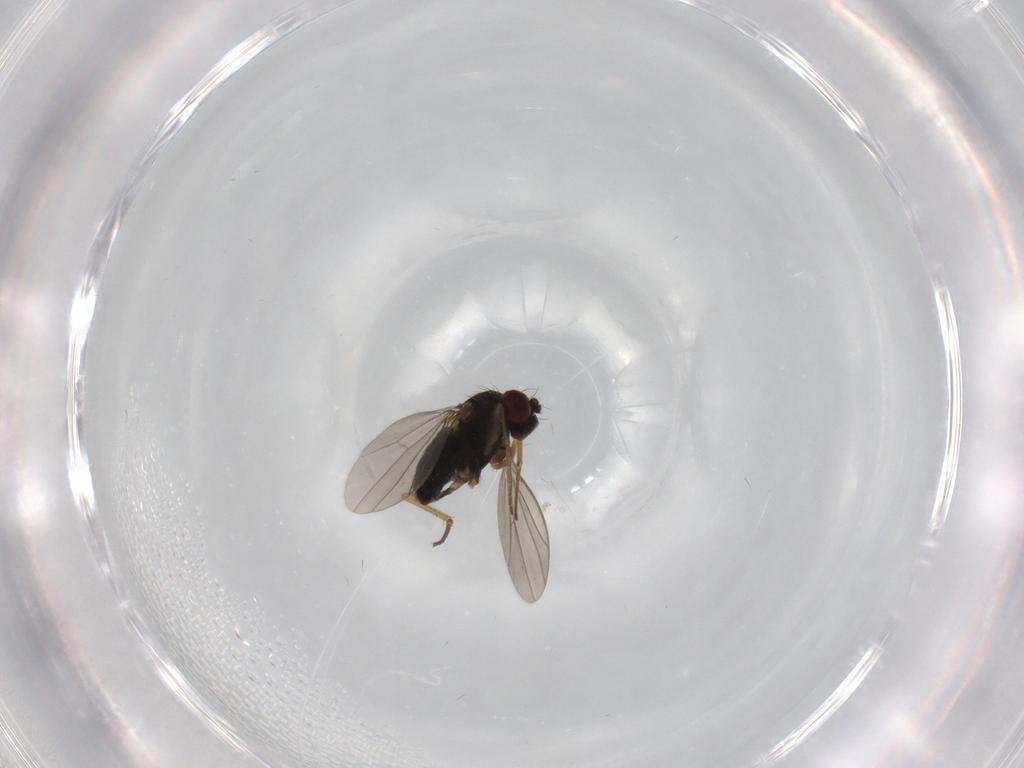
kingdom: Animalia
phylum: Arthropoda
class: Insecta
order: Diptera
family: Dolichopodidae
